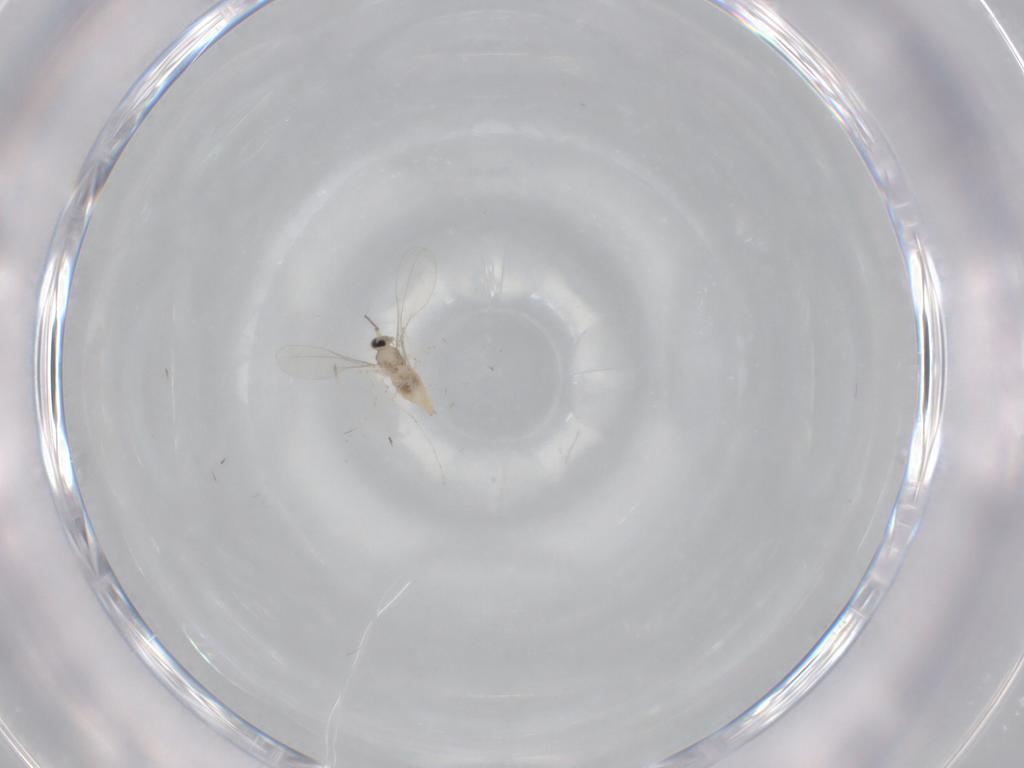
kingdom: Animalia
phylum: Arthropoda
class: Insecta
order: Diptera
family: Cecidomyiidae
